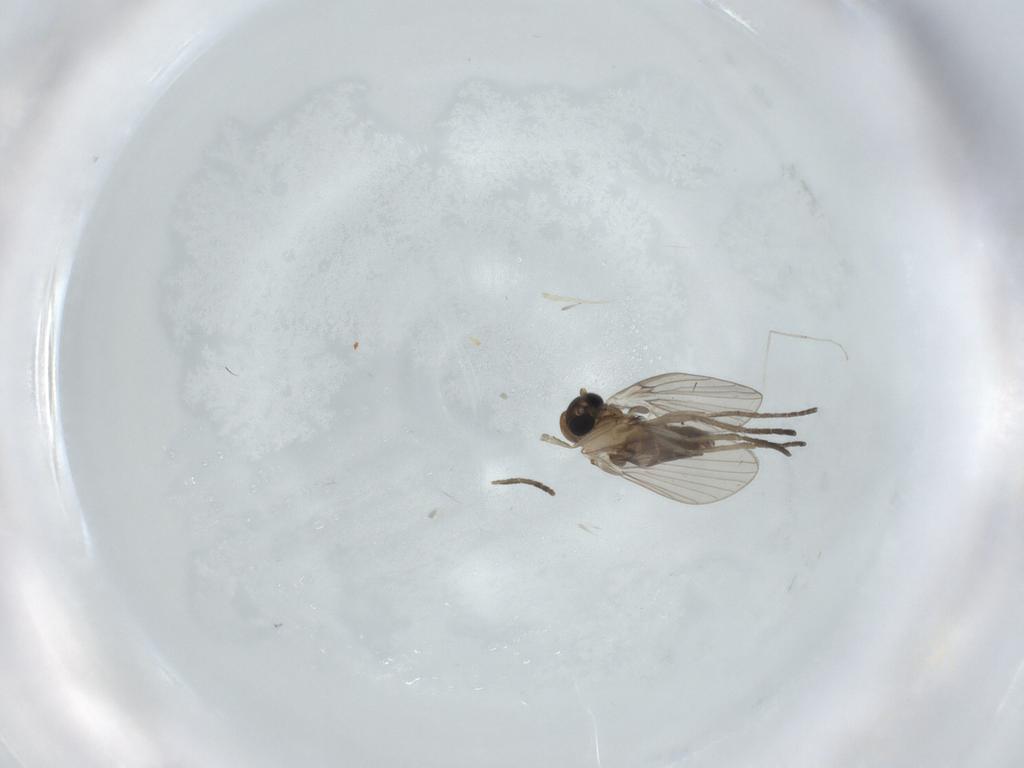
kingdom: Animalia
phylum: Arthropoda
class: Insecta
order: Diptera
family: Psychodidae
